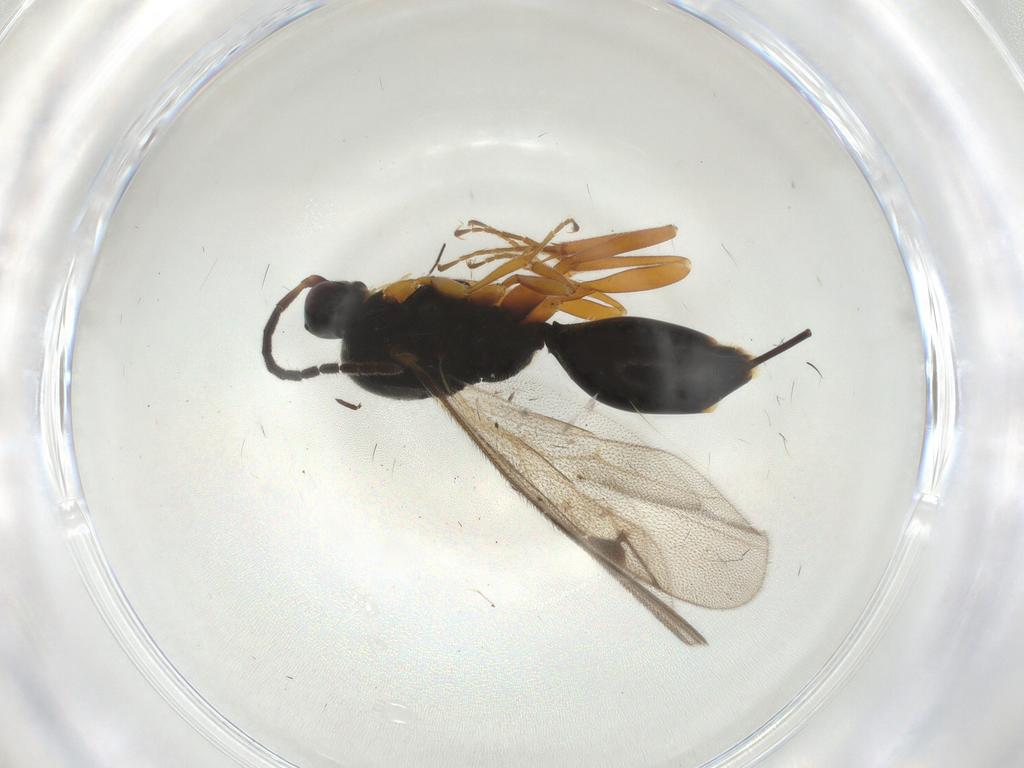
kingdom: Animalia
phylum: Arthropoda
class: Insecta
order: Hymenoptera
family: Proctotrupidae
